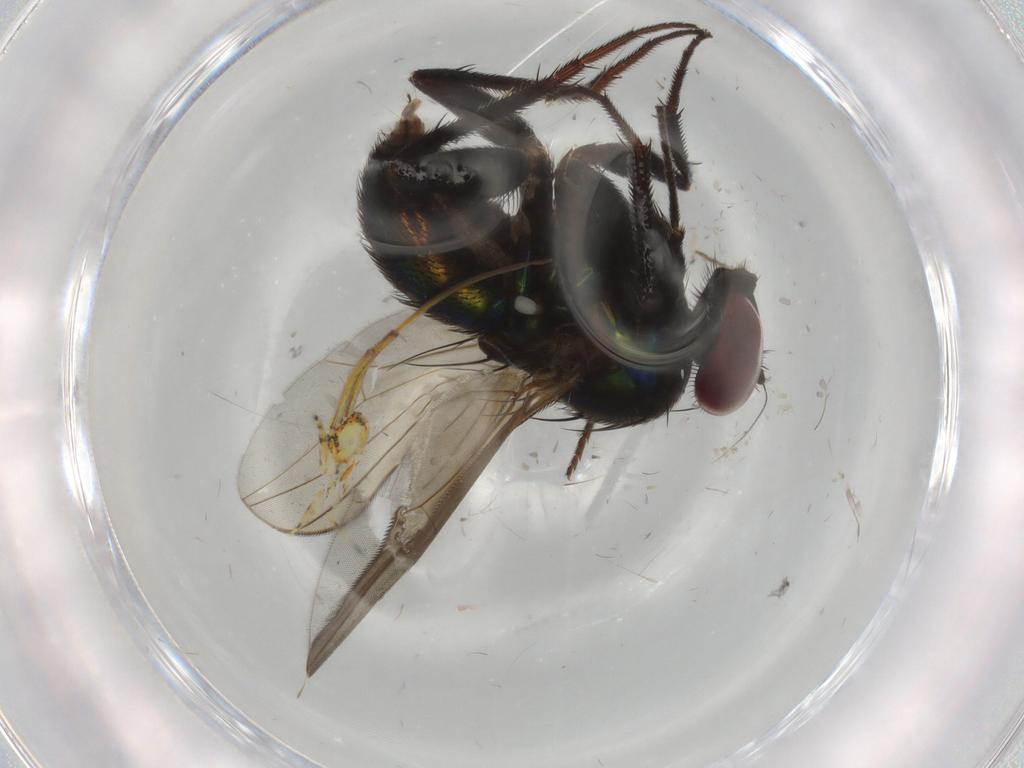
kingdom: Animalia
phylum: Arthropoda
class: Insecta
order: Diptera
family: Dolichopodidae
